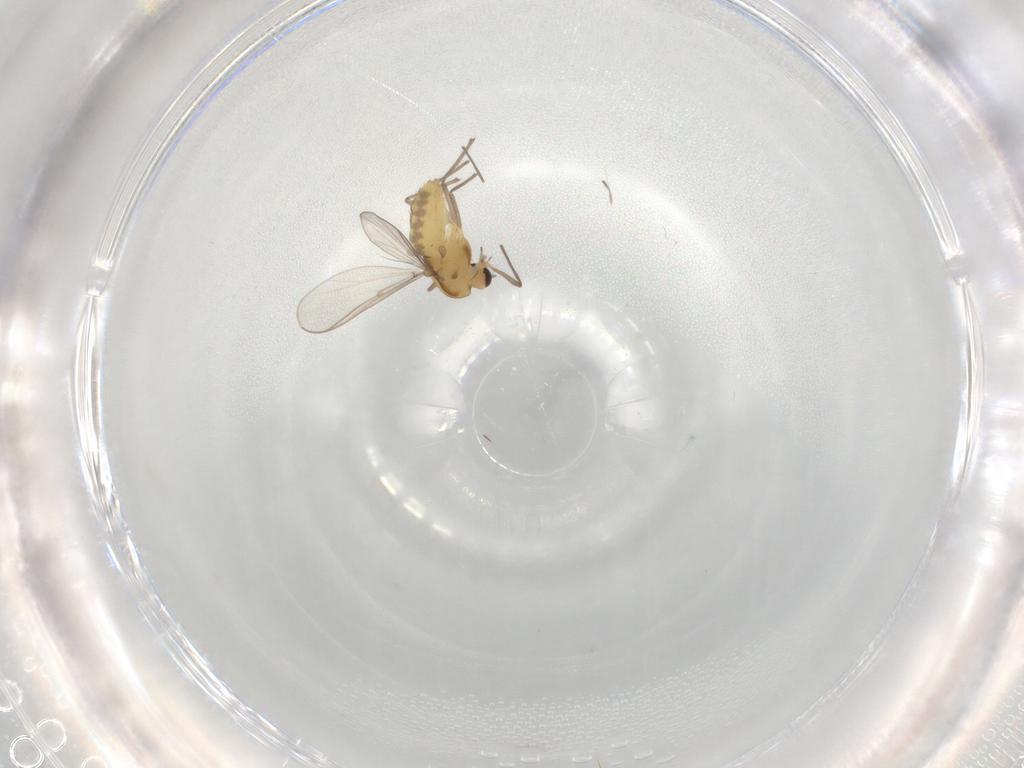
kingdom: Animalia
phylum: Arthropoda
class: Insecta
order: Diptera
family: Chironomidae
